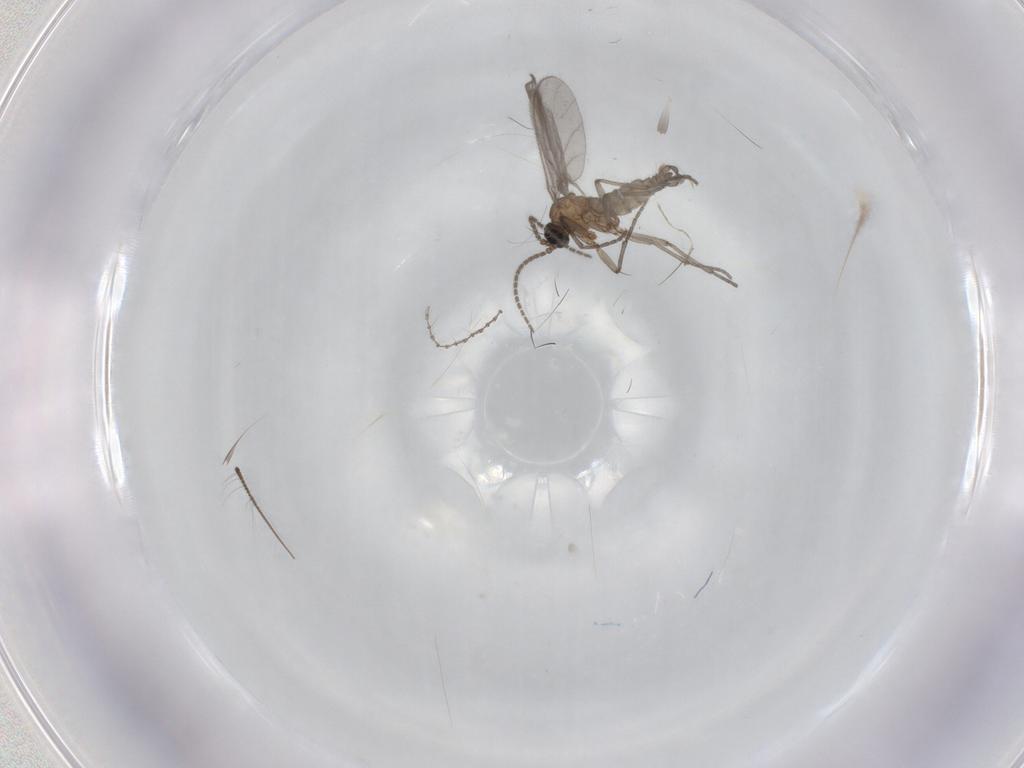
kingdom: Animalia
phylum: Arthropoda
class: Insecta
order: Diptera
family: Sciaridae
